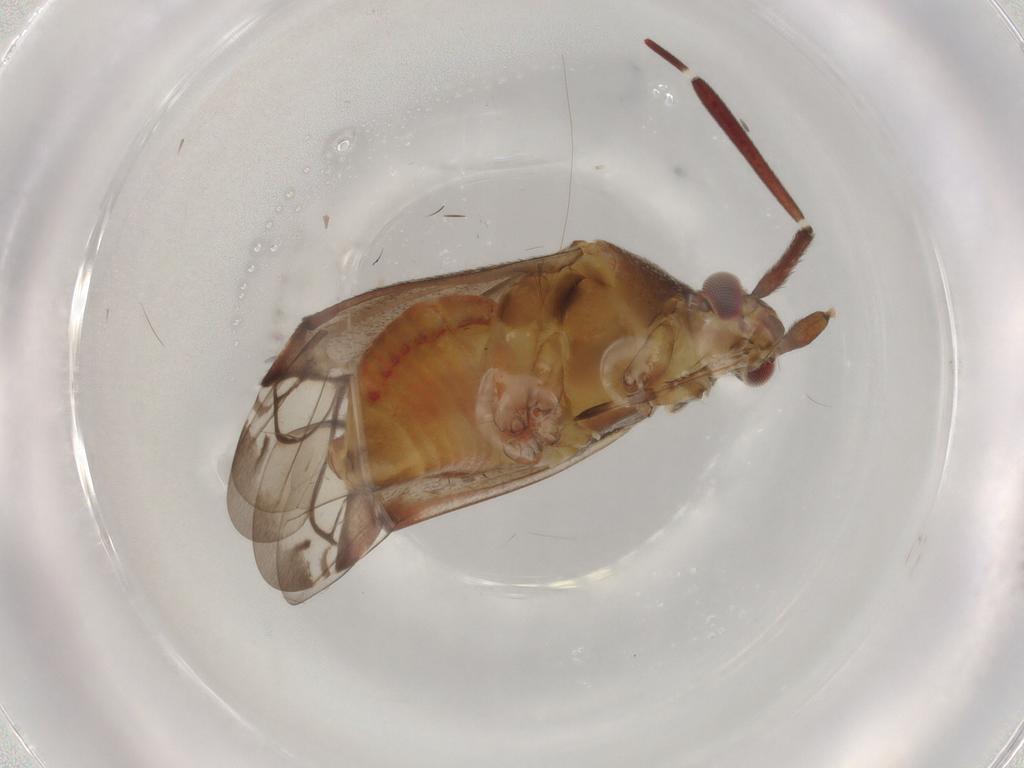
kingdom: Animalia
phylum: Arthropoda
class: Insecta
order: Hemiptera
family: Miridae
